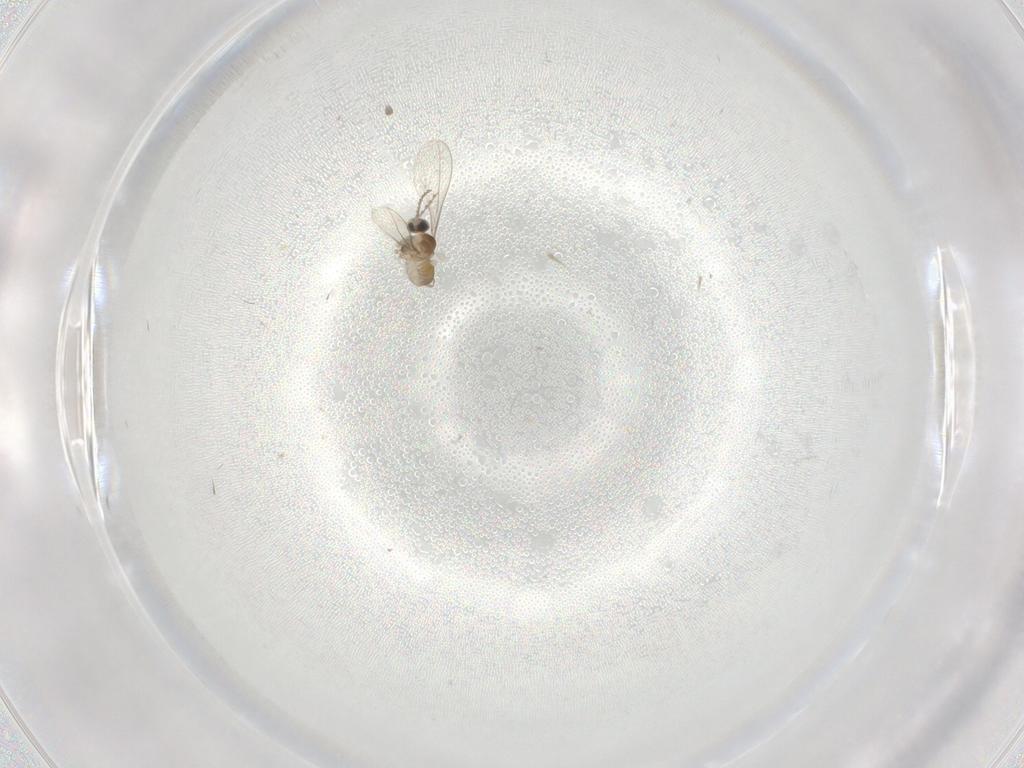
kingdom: Animalia
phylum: Arthropoda
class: Insecta
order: Diptera
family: Cecidomyiidae
